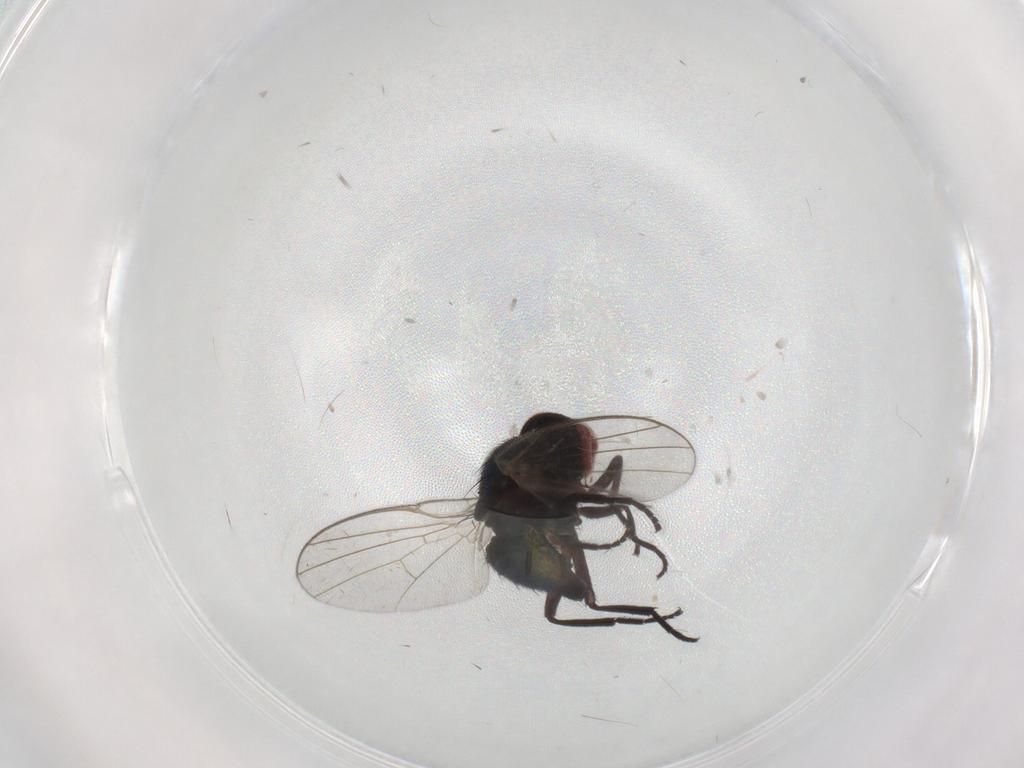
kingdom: Animalia
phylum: Arthropoda
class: Insecta
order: Diptera
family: Agromyzidae
